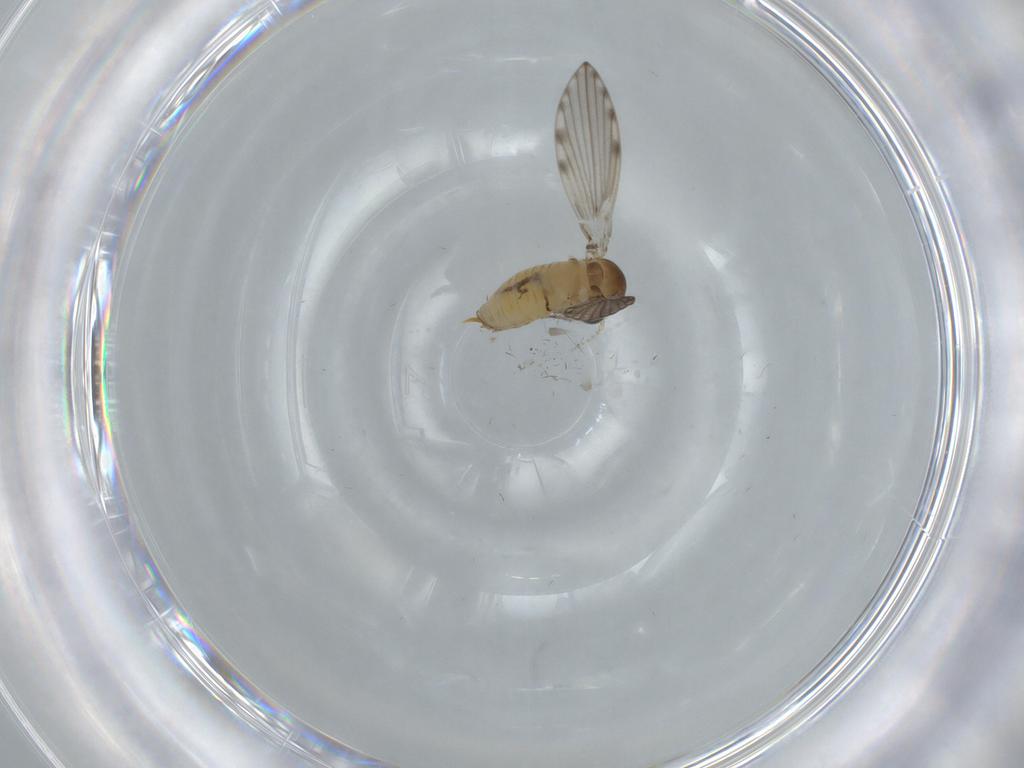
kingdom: Animalia
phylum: Arthropoda
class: Insecta
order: Diptera
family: Psychodidae
